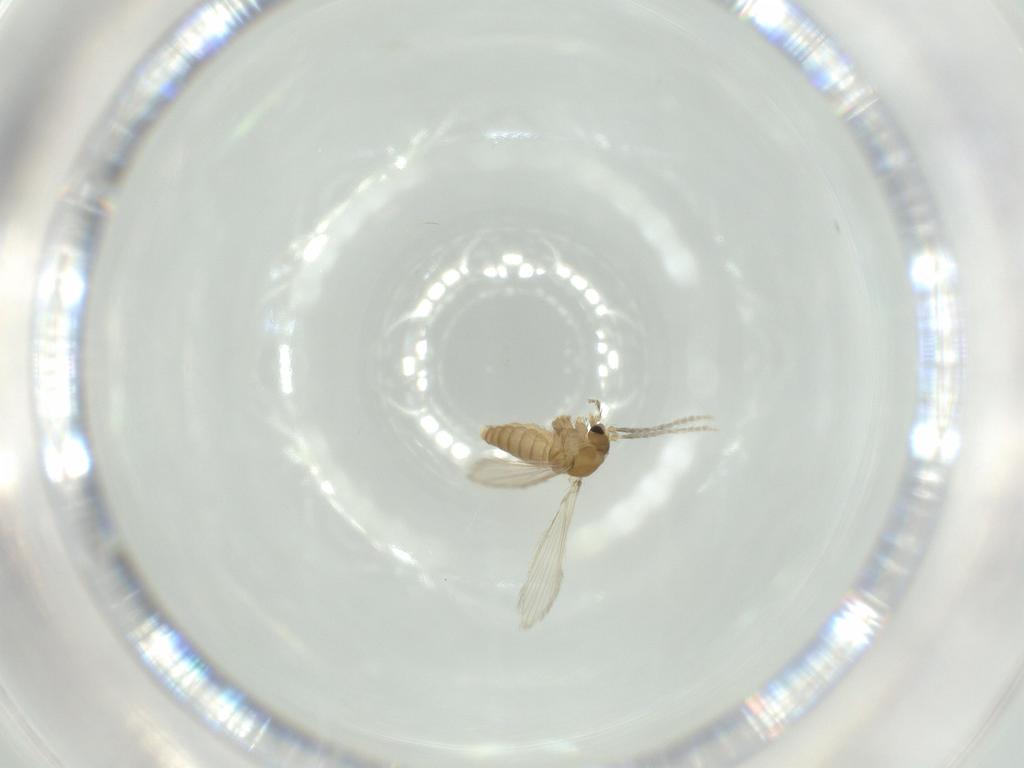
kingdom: Animalia
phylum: Arthropoda
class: Insecta
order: Diptera
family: Psychodidae
